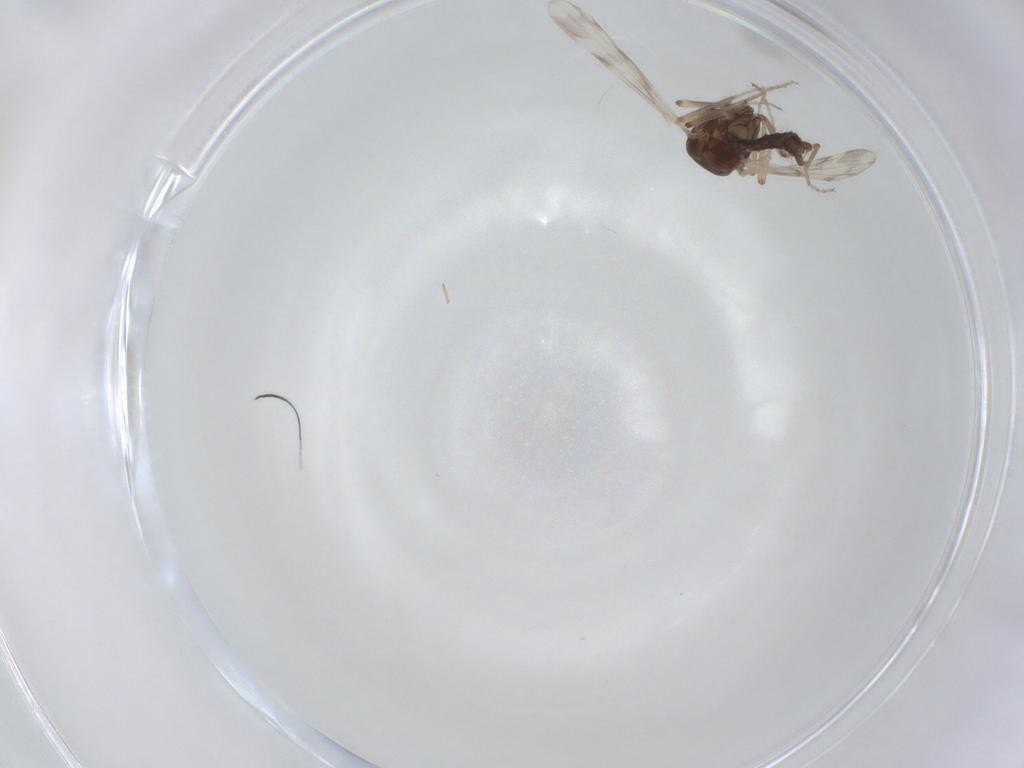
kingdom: Animalia
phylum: Arthropoda
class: Insecta
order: Diptera
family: Ceratopogonidae
